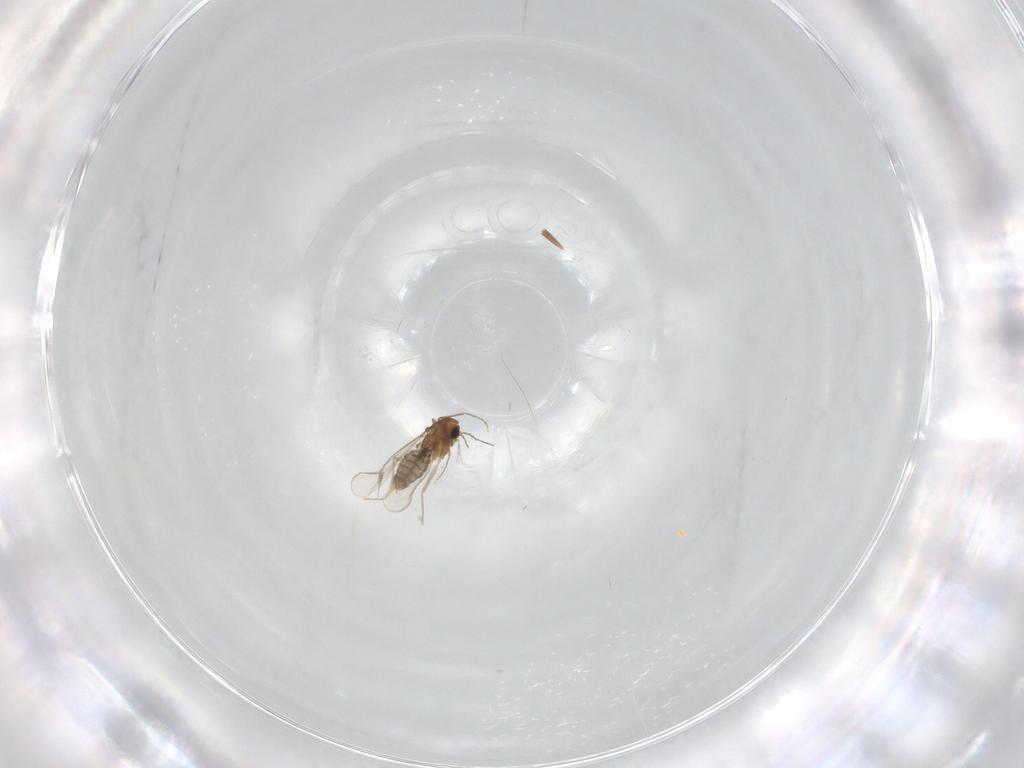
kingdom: Animalia
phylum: Arthropoda
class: Insecta
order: Diptera
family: Chironomidae
